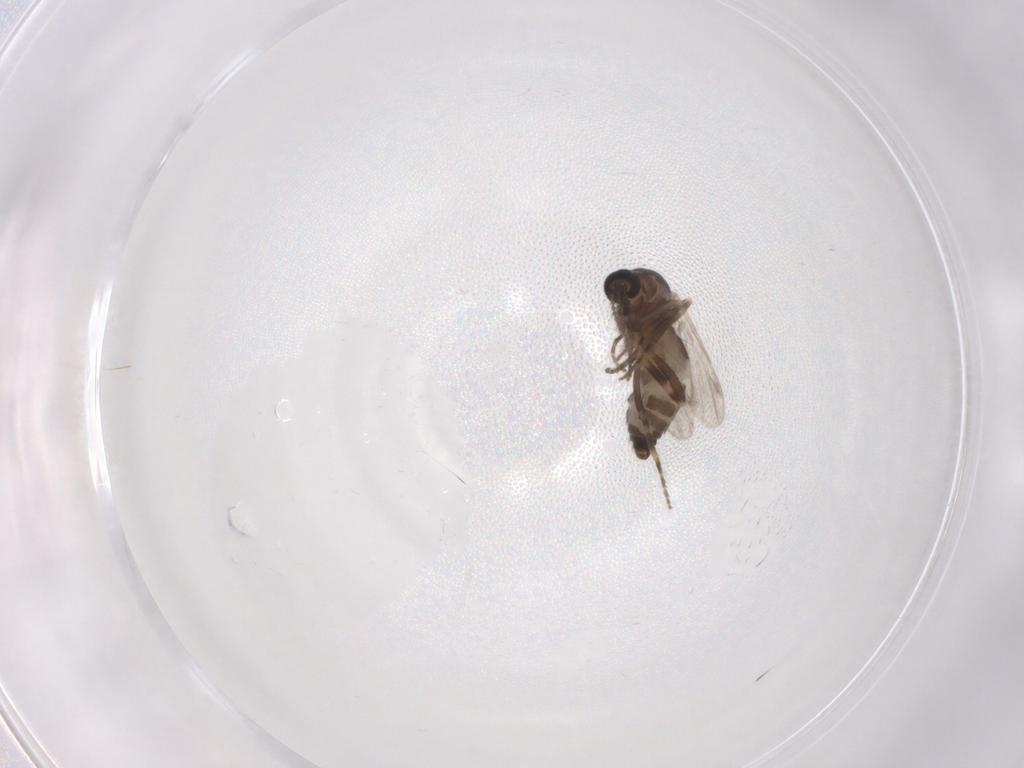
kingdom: Animalia
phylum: Arthropoda
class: Insecta
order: Diptera
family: Ceratopogonidae
